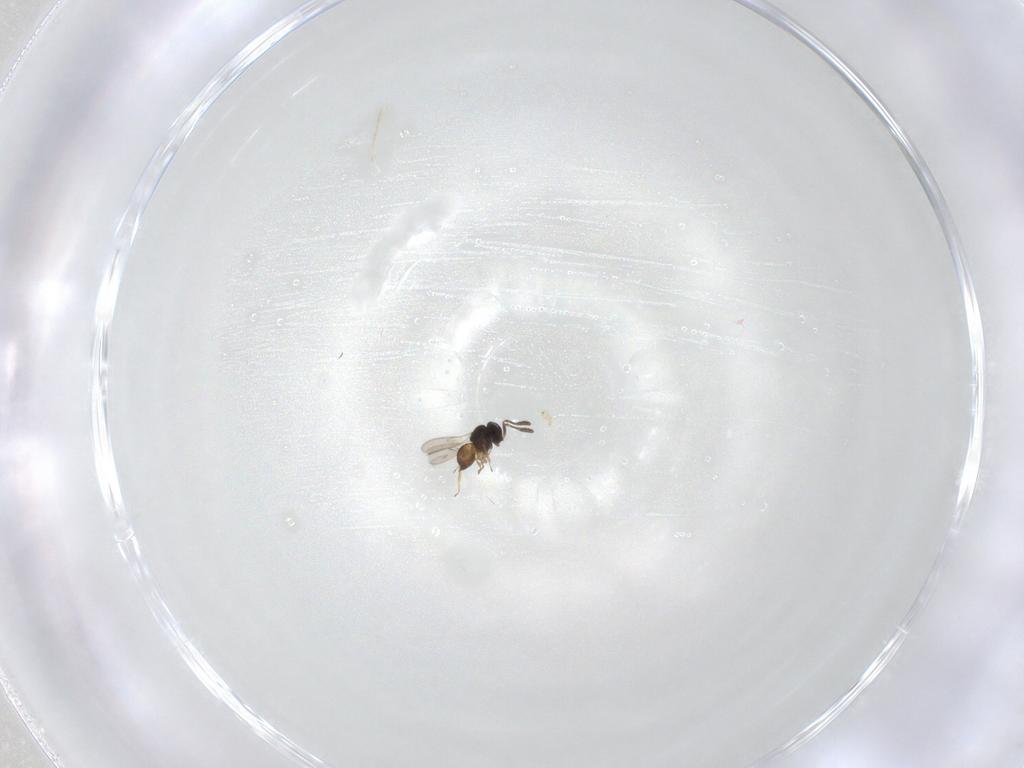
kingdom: Animalia
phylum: Arthropoda
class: Insecta
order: Hymenoptera
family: Scelionidae
